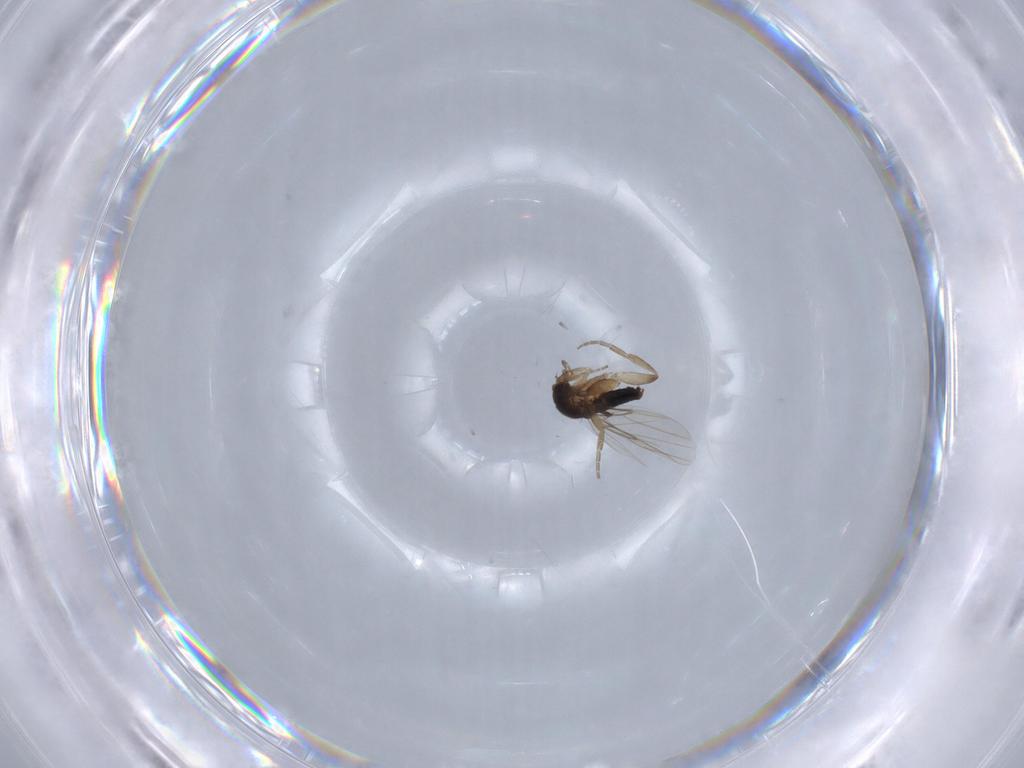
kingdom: Animalia
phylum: Arthropoda
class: Insecta
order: Diptera
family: Phoridae
